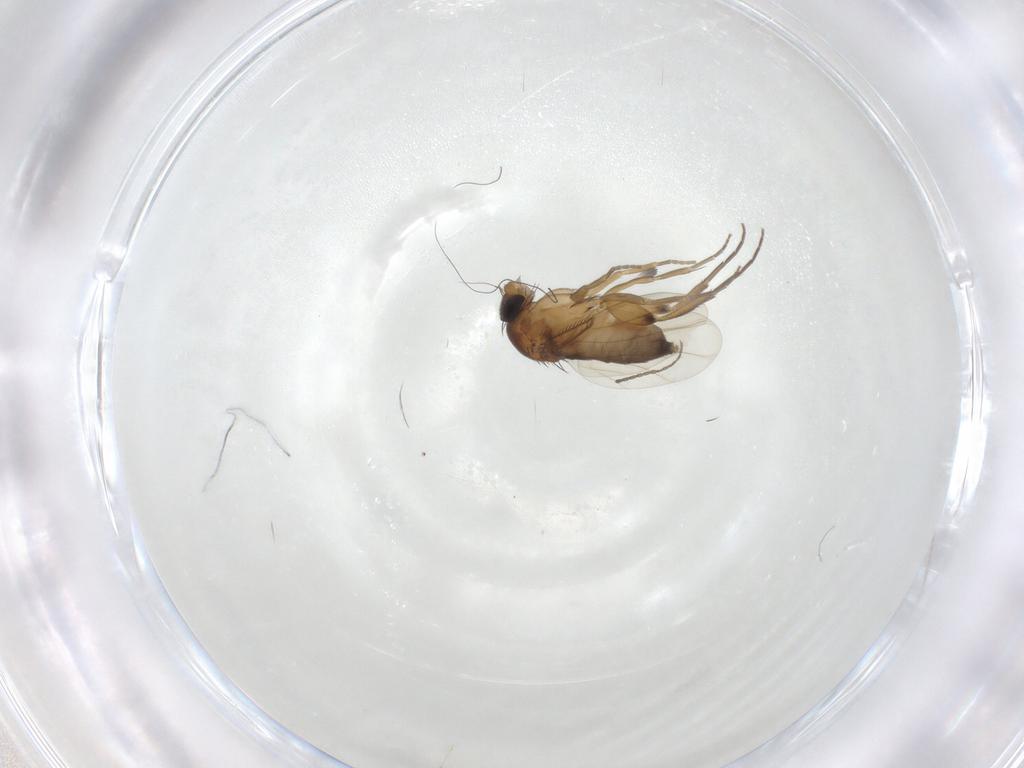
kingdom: Animalia
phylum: Arthropoda
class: Insecta
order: Diptera
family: Phoridae
